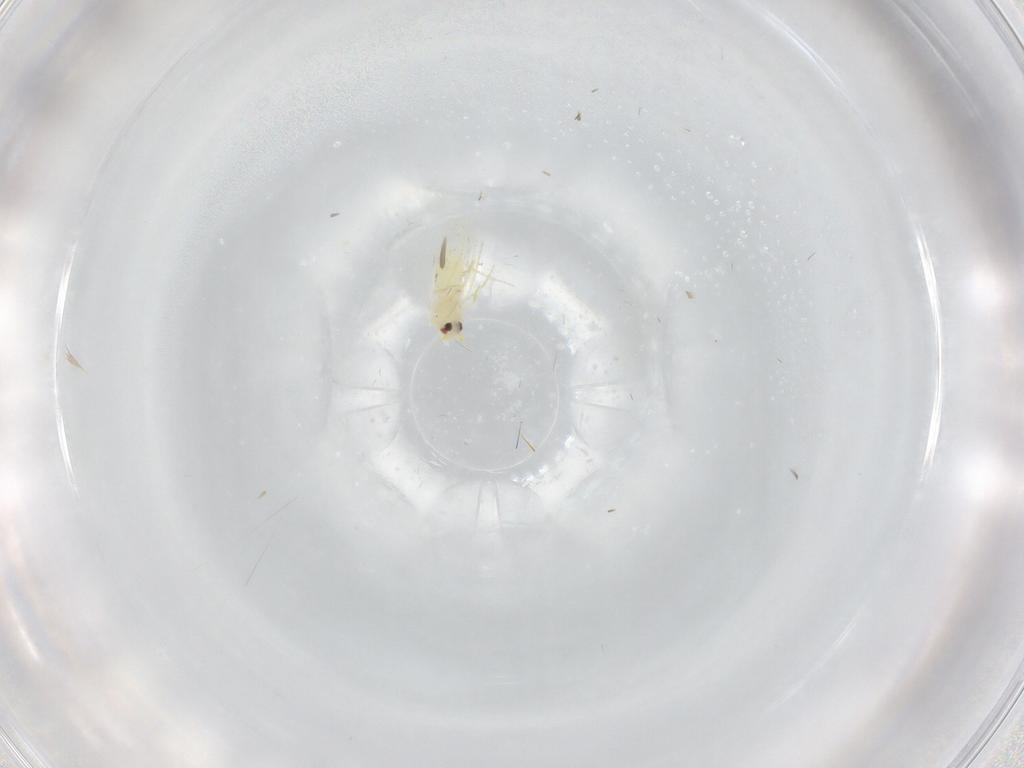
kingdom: Animalia
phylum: Arthropoda
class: Insecta
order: Hemiptera
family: Aleyrodidae
